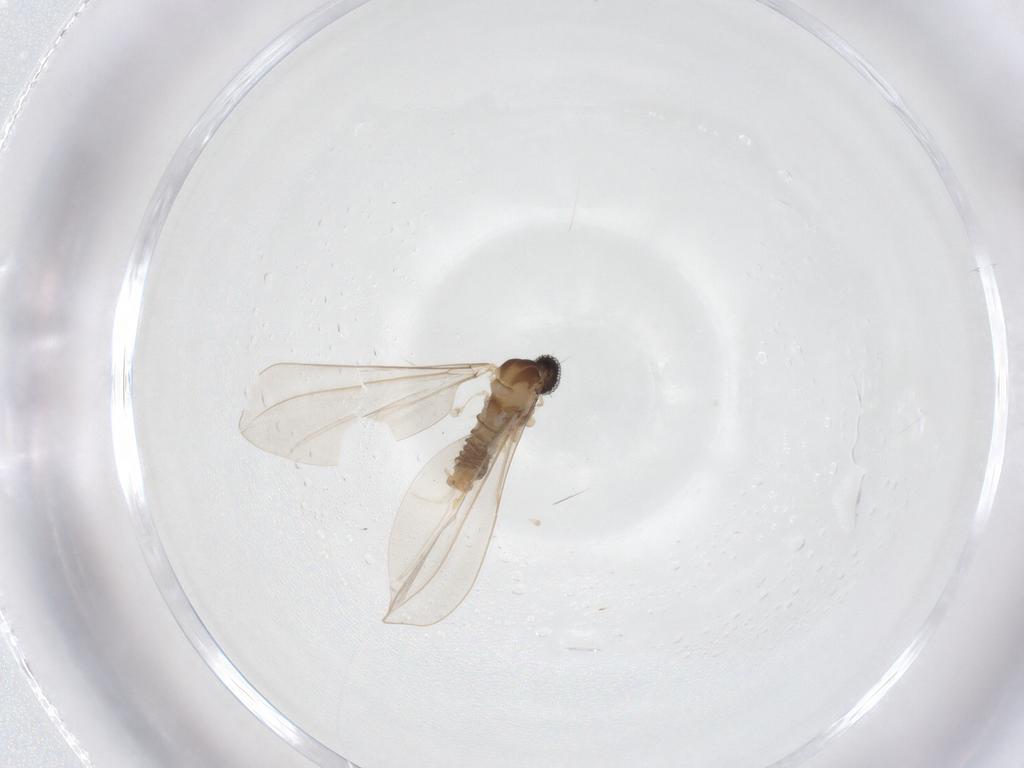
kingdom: Animalia
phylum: Arthropoda
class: Insecta
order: Diptera
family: Cecidomyiidae
